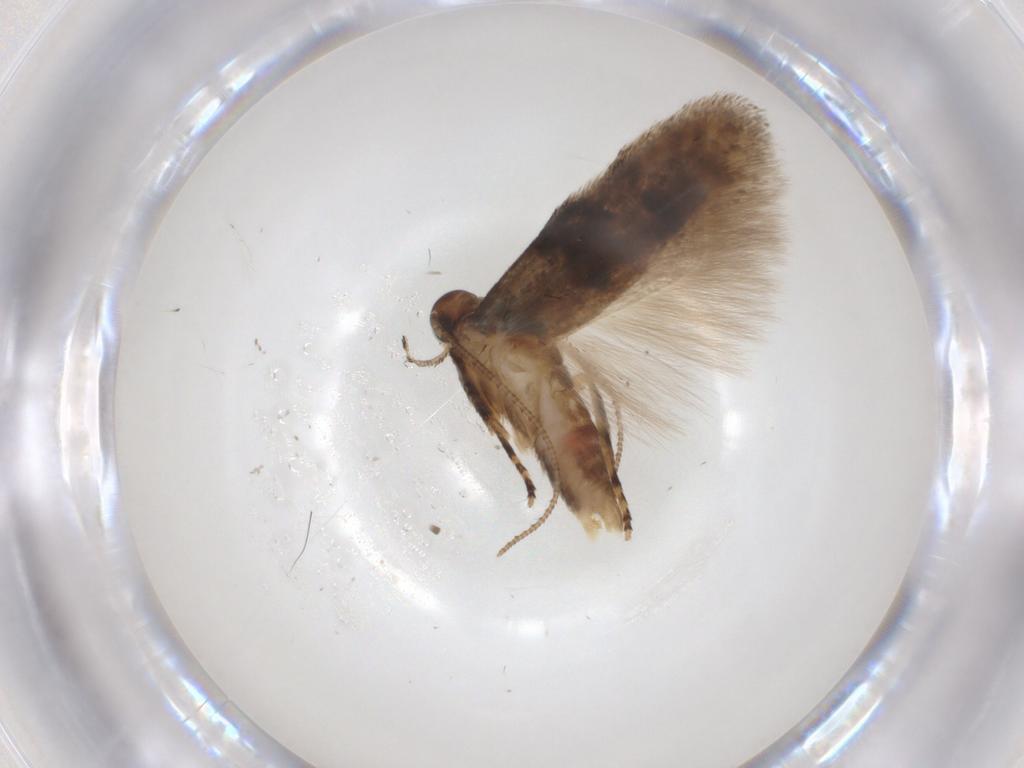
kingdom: Animalia
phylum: Arthropoda
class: Insecta
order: Lepidoptera
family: Gelechiidae
